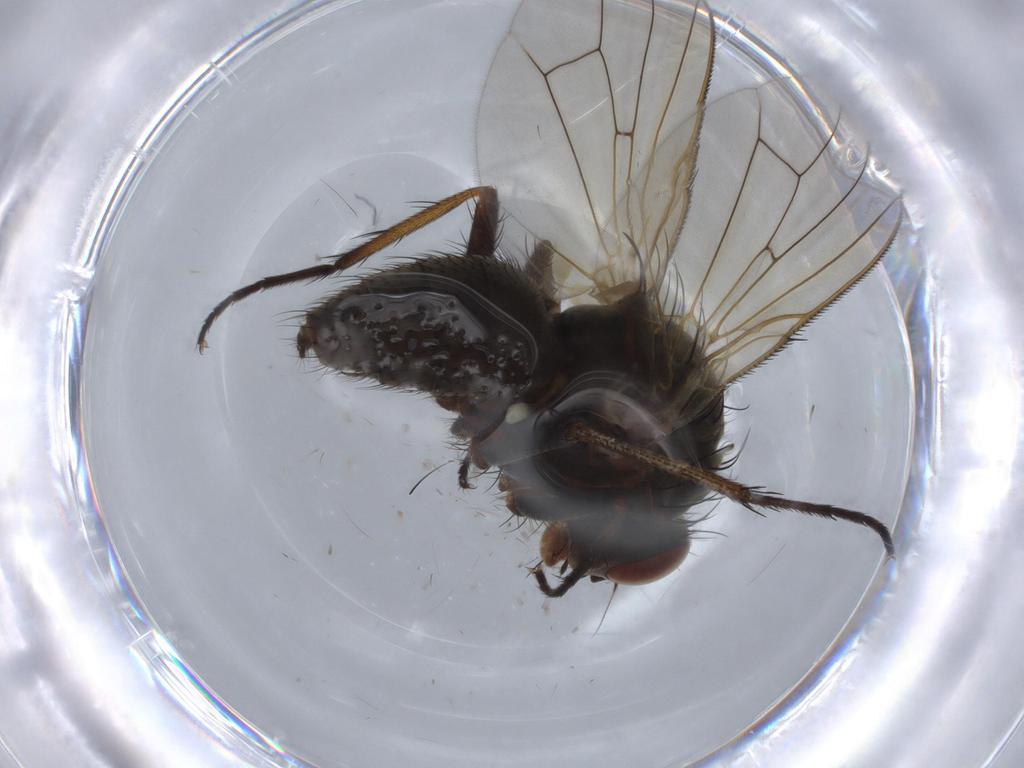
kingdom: Animalia
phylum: Arthropoda
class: Insecta
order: Diptera
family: Anthomyiidae
